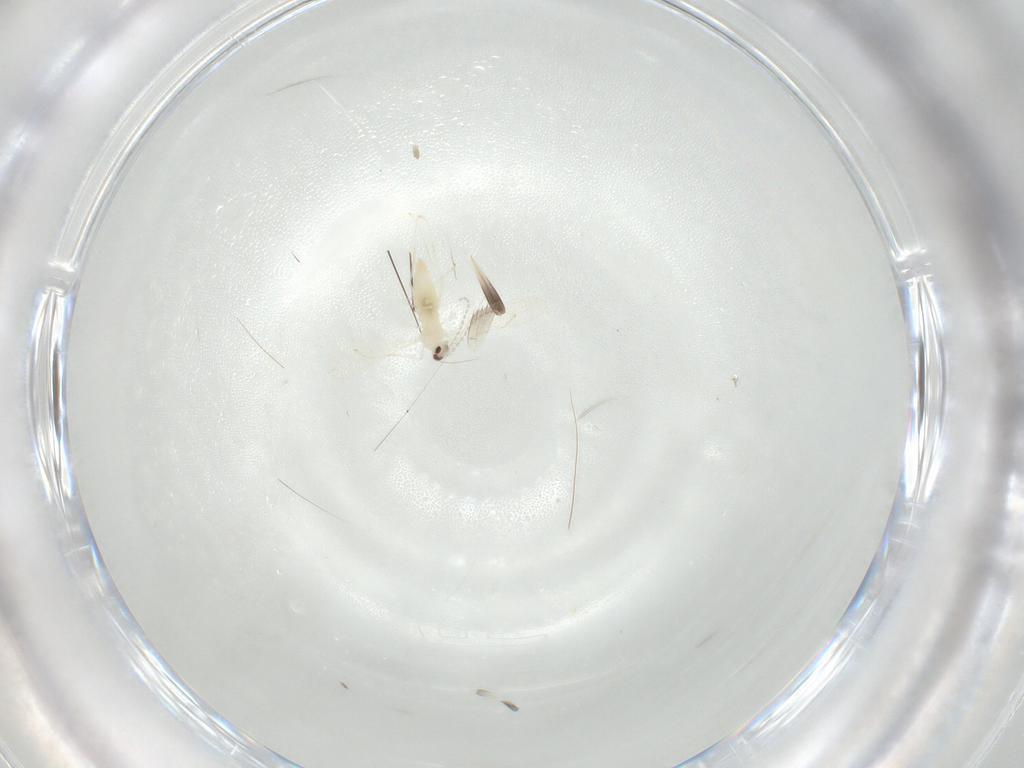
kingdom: Animalia
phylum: Arthropoda
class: Insecta
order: Diptera
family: Cecidomyiidae
